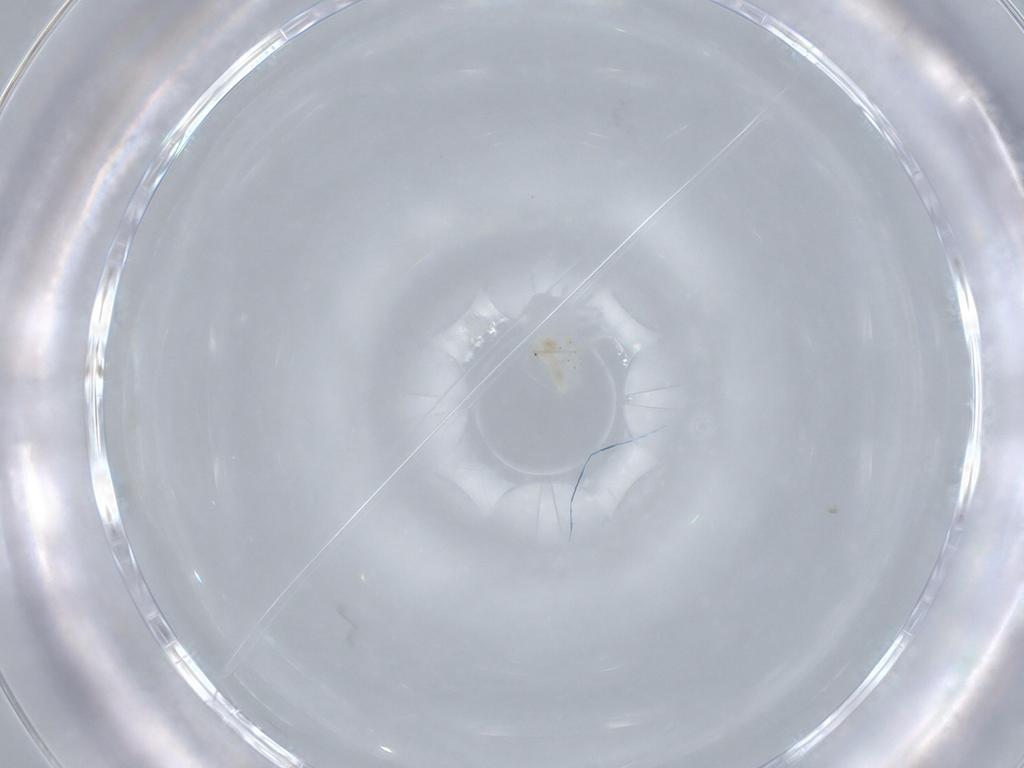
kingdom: Animalia
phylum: Arthropoda
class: Insecta
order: Psocodea
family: Caeciliusidae
